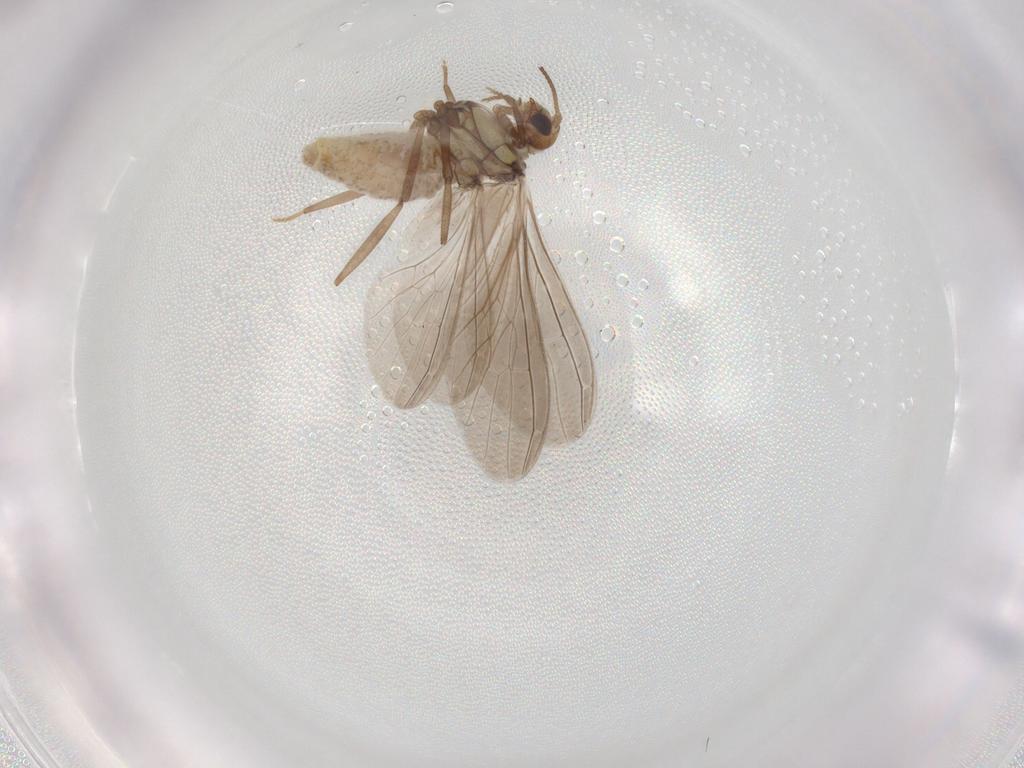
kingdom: Animalia
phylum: Arthropoda
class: Insecta
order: Neuroptera
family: Coniopterygidae
